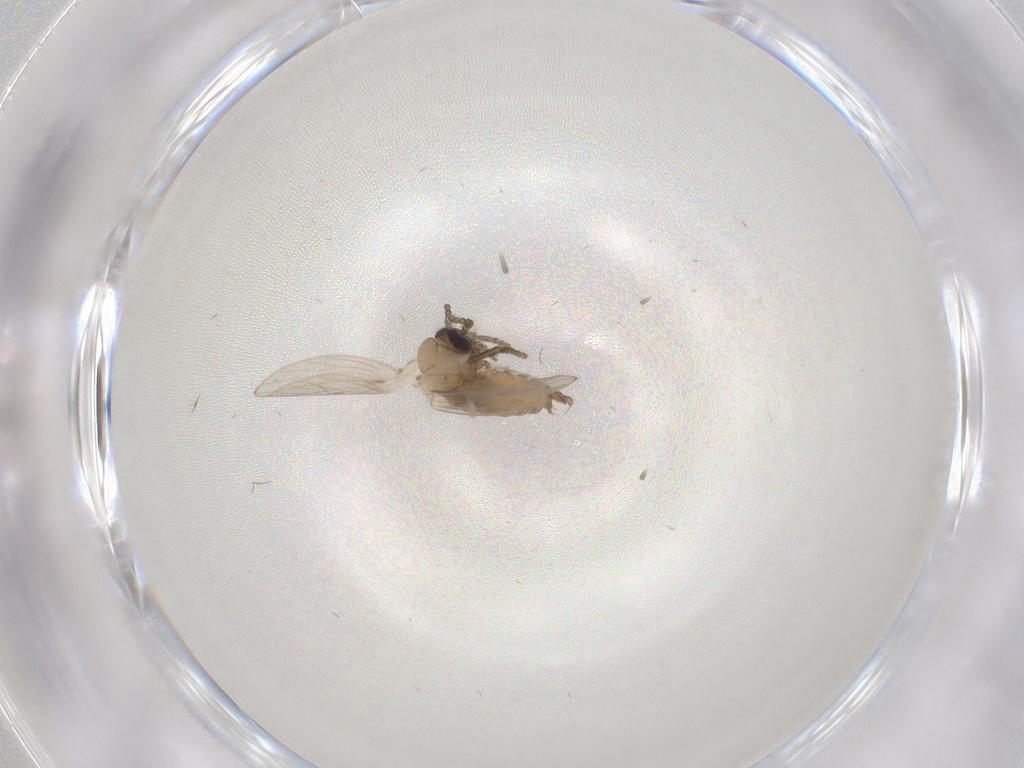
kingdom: Animalia
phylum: Arthropoda
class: Insecta
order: Diptera
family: Psychodidae
